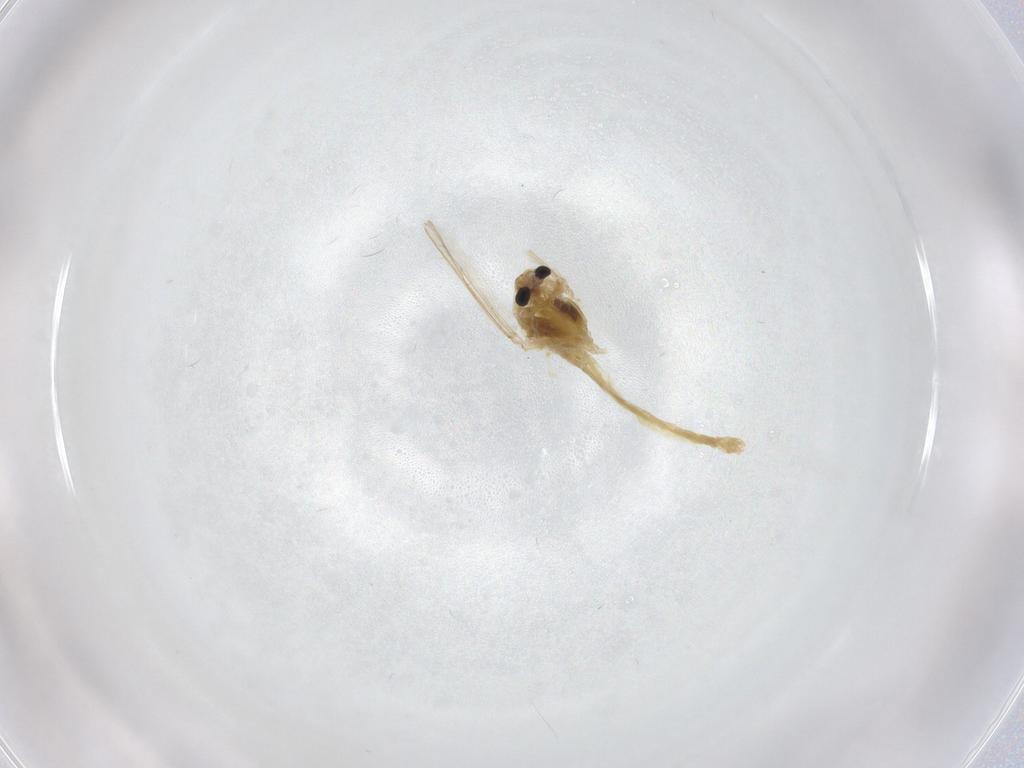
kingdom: Animalia
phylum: Arthropoda
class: Insecta
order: Diptera
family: Chironomidae
